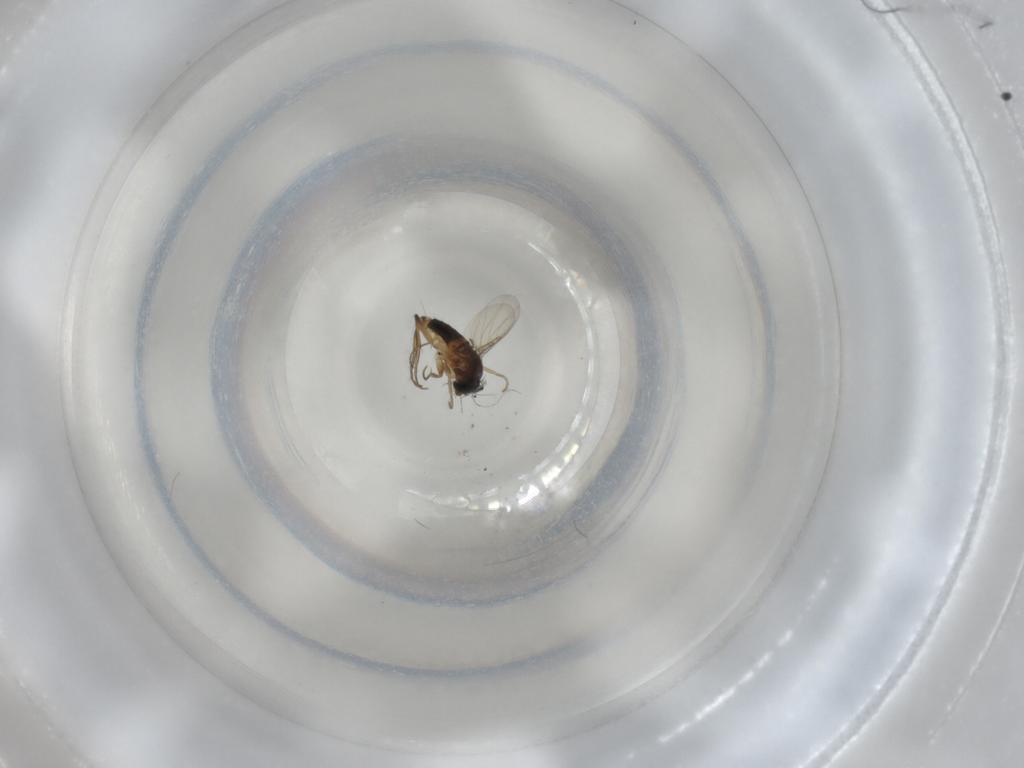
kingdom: Animalia
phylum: Arthropoda
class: Insecta
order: Diptera
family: Phoridae
